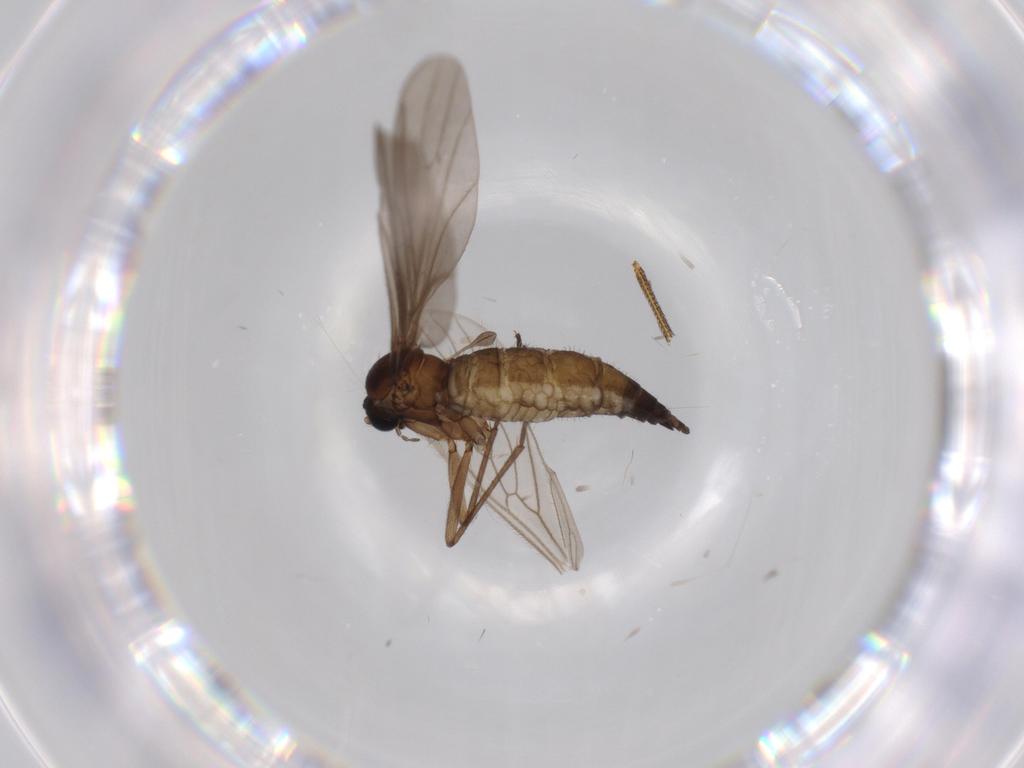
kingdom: Animalia
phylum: Arthropoda
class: Insecta
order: Diptera
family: Sciaridae
